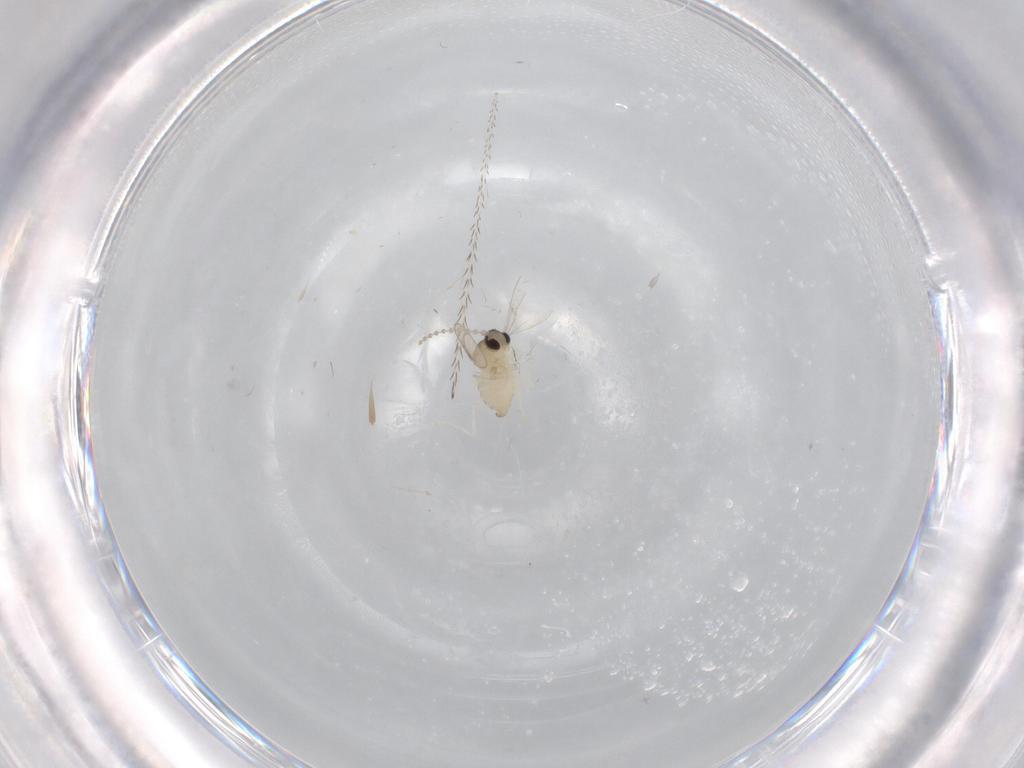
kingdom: Animalia
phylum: Arthropoda
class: Insecta
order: Diptera
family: Cecidomyiidae
